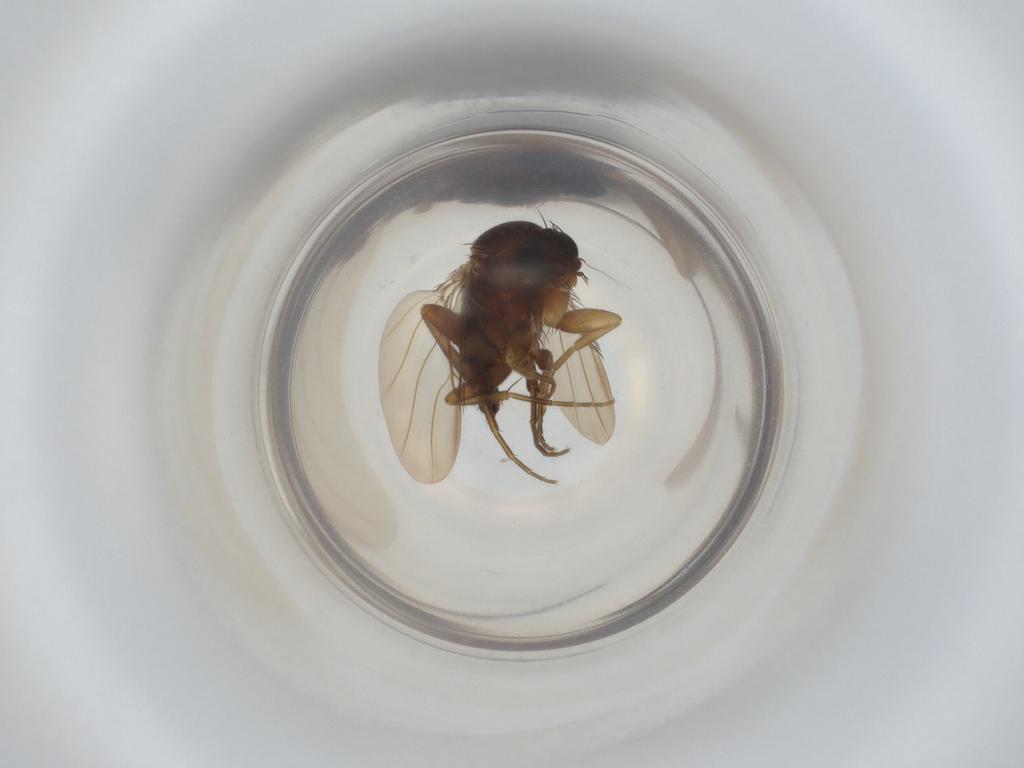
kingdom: Animalia
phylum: Arthropoda
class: Insecta
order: Diptera
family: Phoridae
